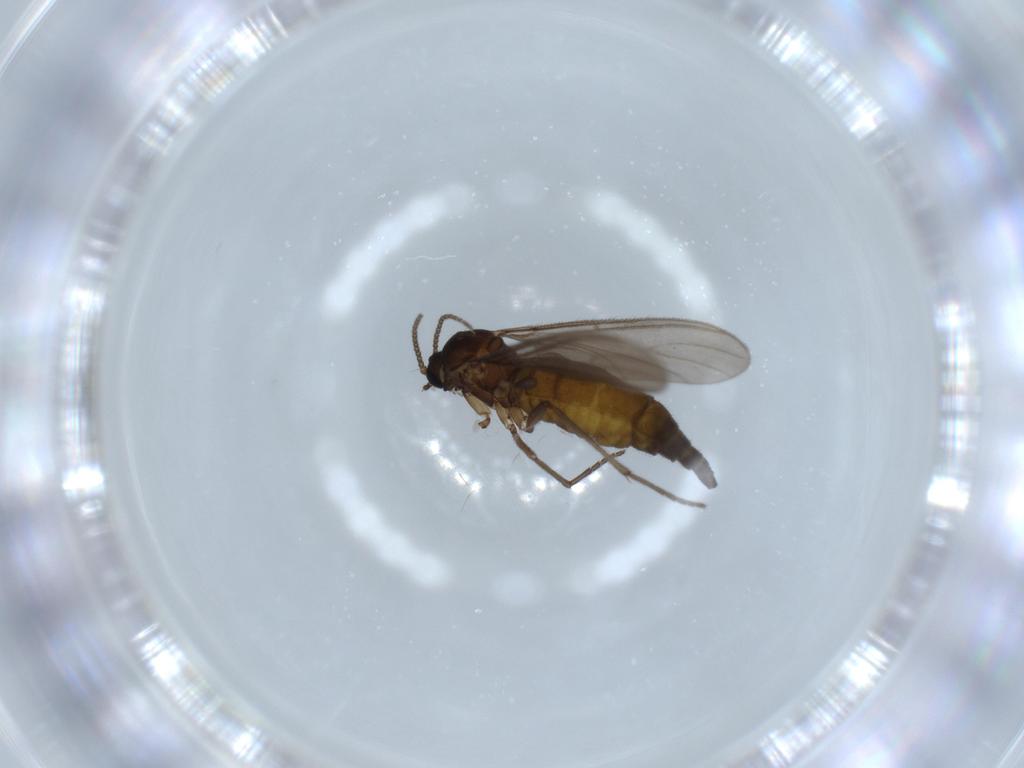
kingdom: Animalia
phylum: Arthropoda
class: Insecta
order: Diptera
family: Sciaridae
